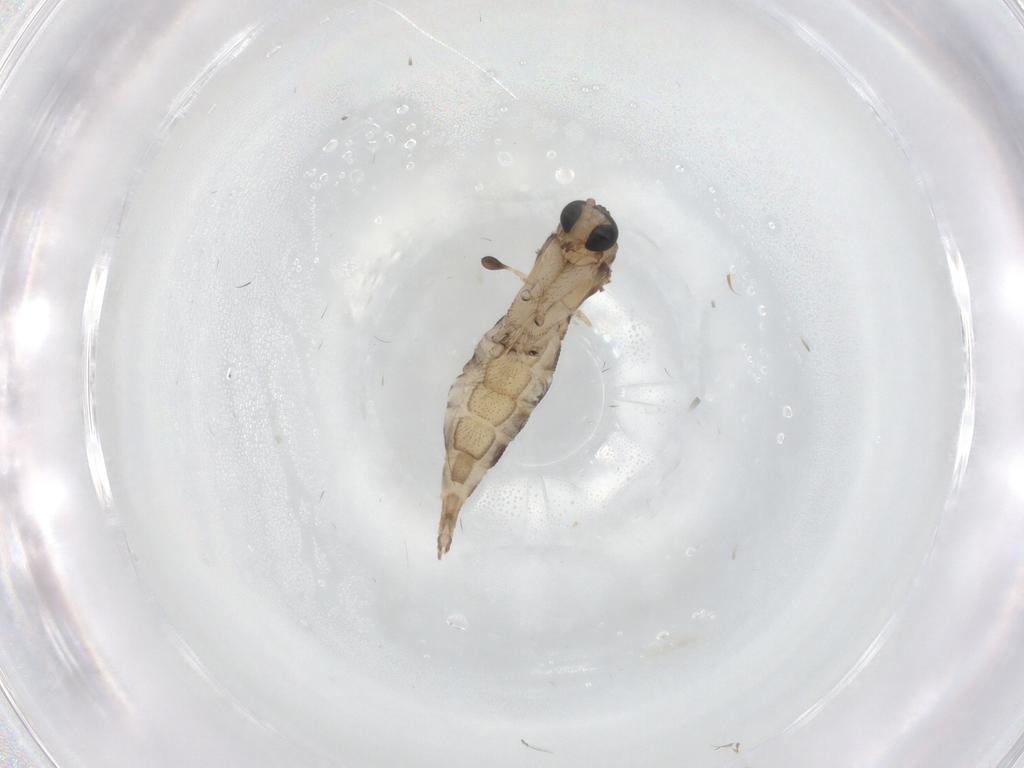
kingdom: Animalia
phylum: Arthropoda
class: Insecta
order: Diptera
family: Sciaridae
